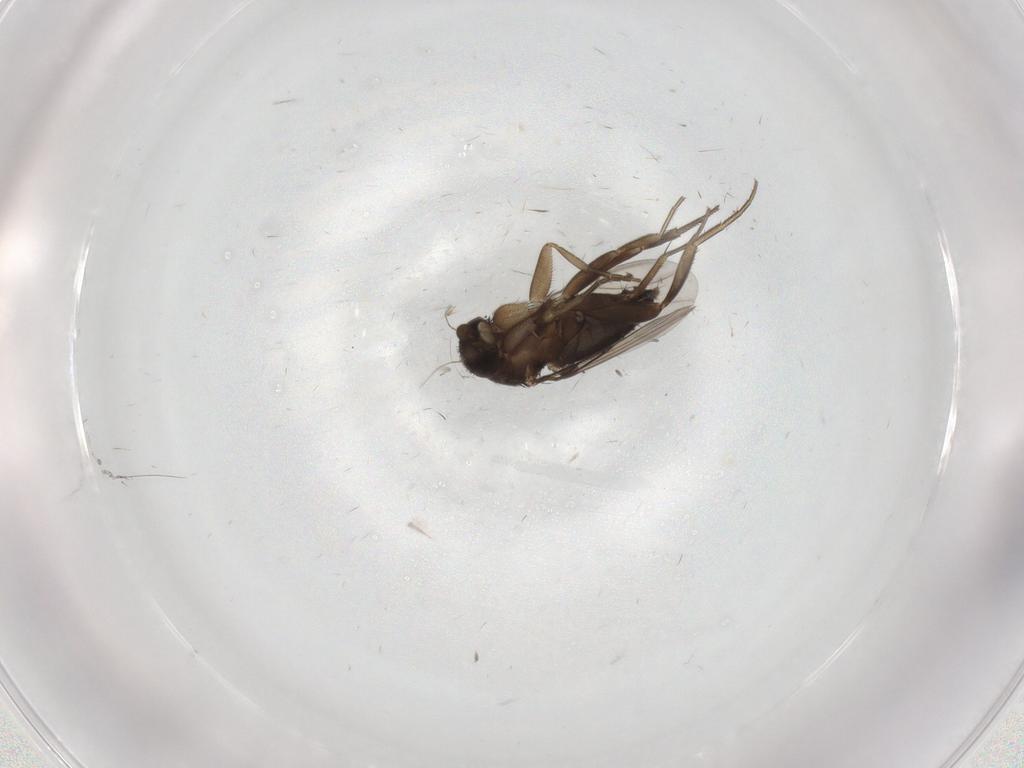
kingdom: Animalia
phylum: Arthropoda
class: Insecta
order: Diptera
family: Phoridae
